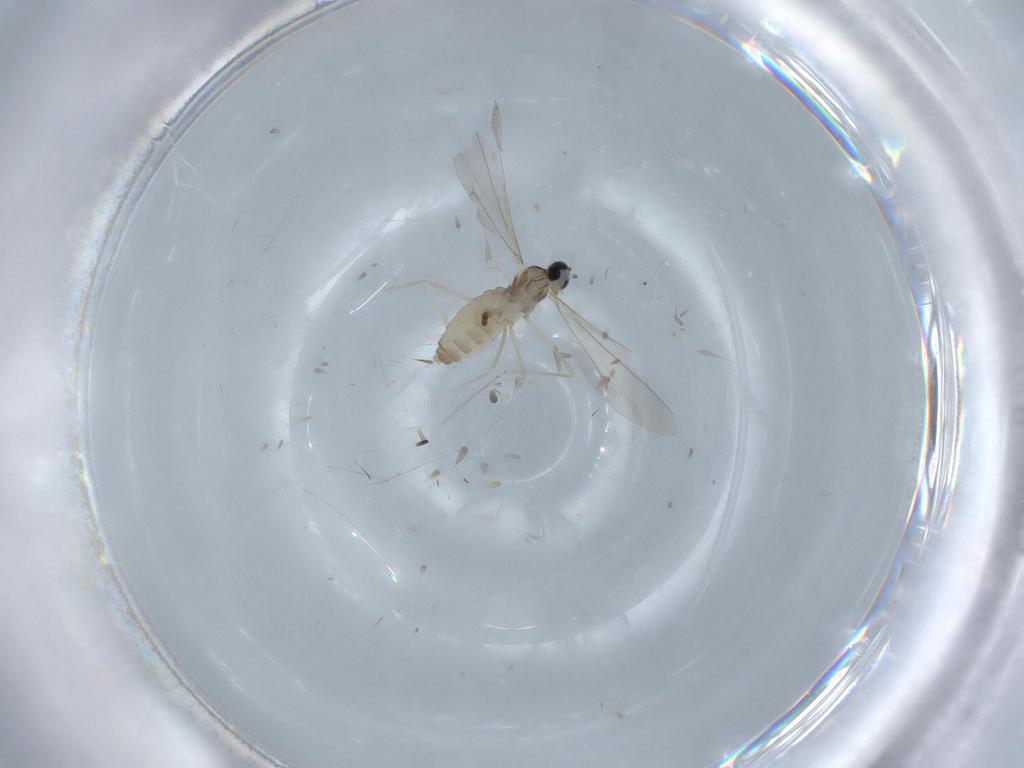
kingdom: Animalia
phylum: Arthropoda
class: Insecta
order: Diptera
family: Cecidomyiidae
